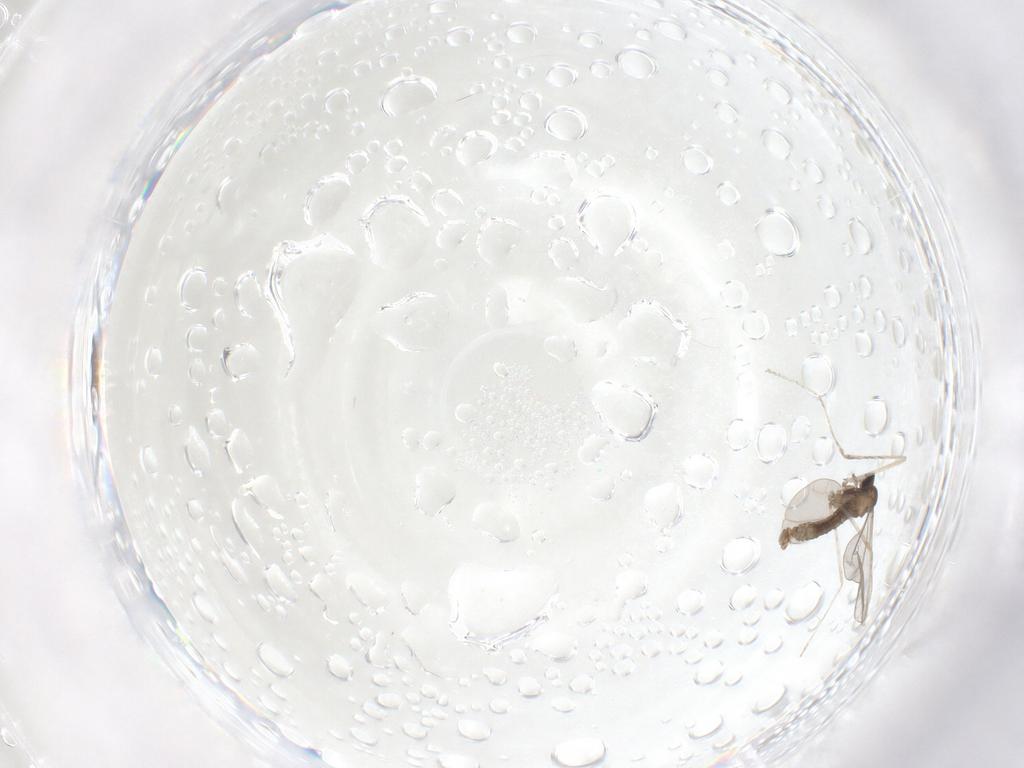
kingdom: Animalia
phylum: Arthropoda
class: Insecta
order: Diptera
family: Cecidomyiidae
